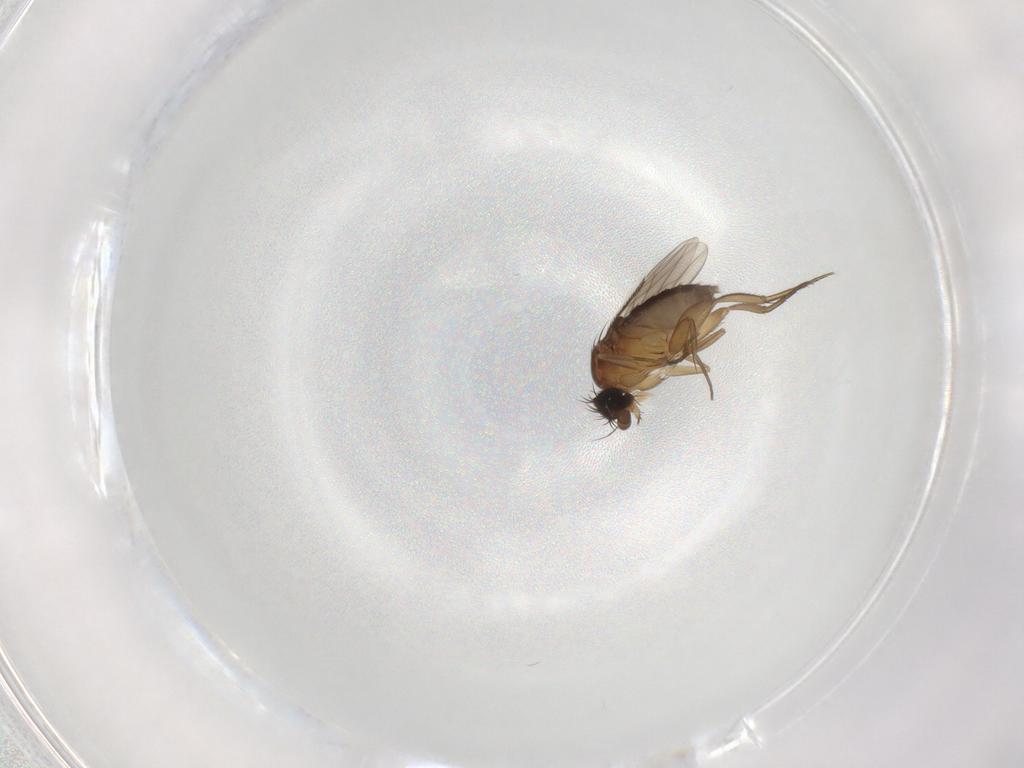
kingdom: Animalia
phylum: Arthropoda
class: Insecta
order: Diptera
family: Phoridae
